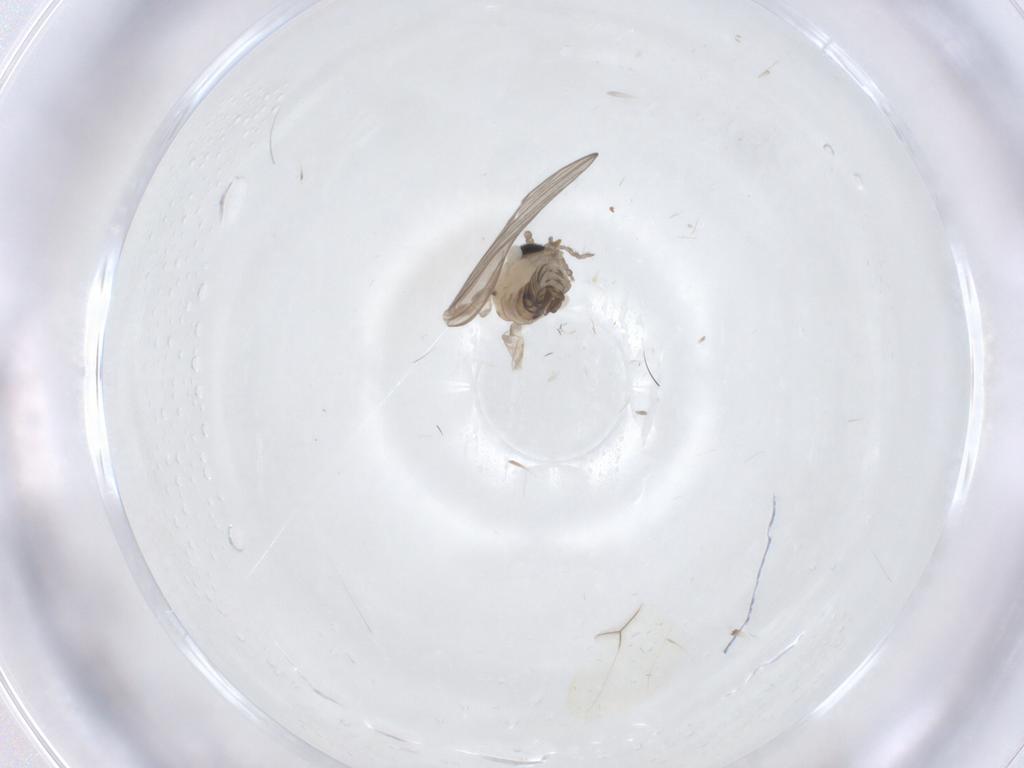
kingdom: Animalia
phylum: Arthropoda
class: Insecta
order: Diptera
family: Psychodidae
